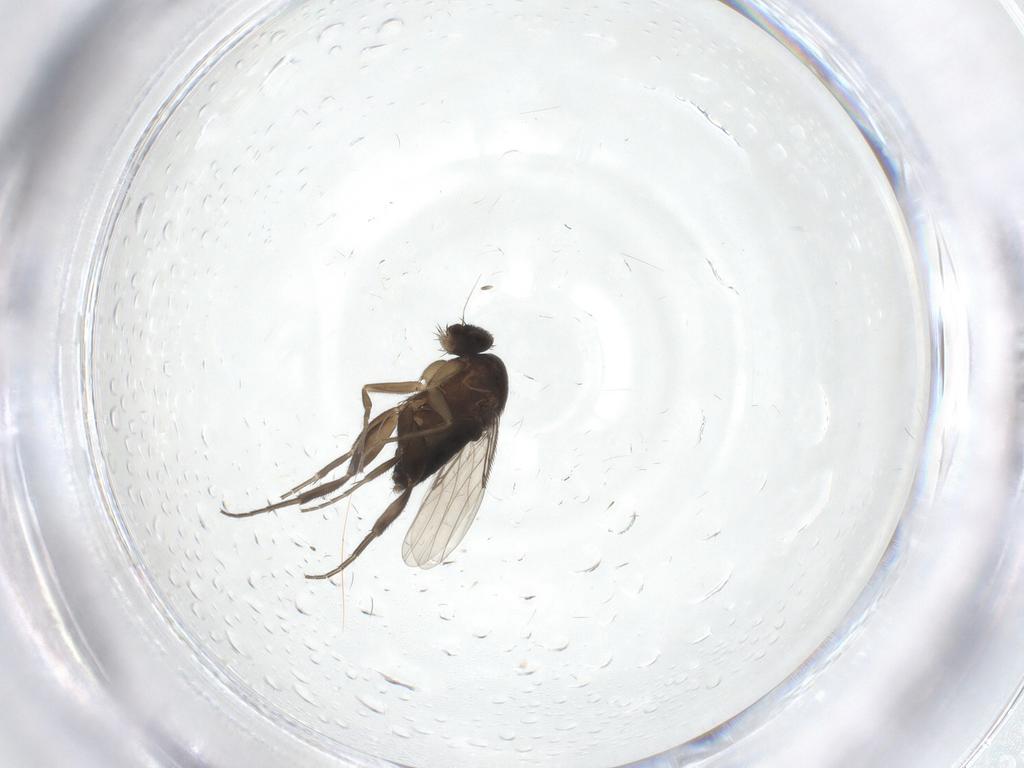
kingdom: Animalia
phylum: Arthropoda
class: Insecta
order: Diptera
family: Phoridae
